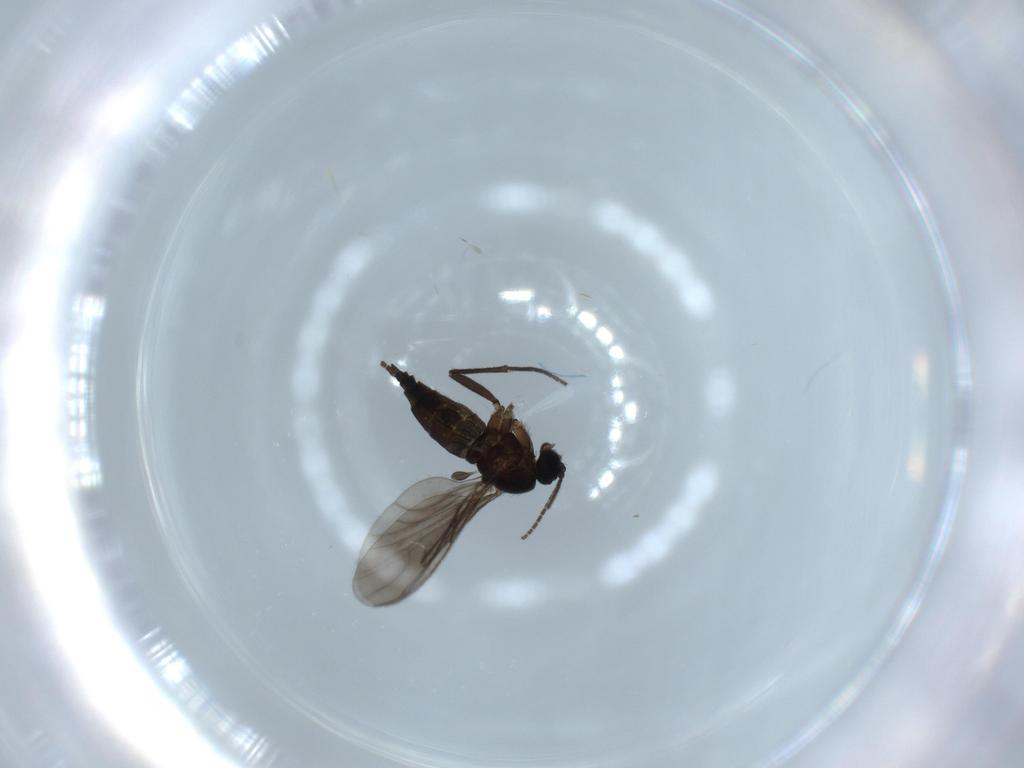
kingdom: Animalia
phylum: Arthropoda
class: Insecta
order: Diptera
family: Sciaridae
